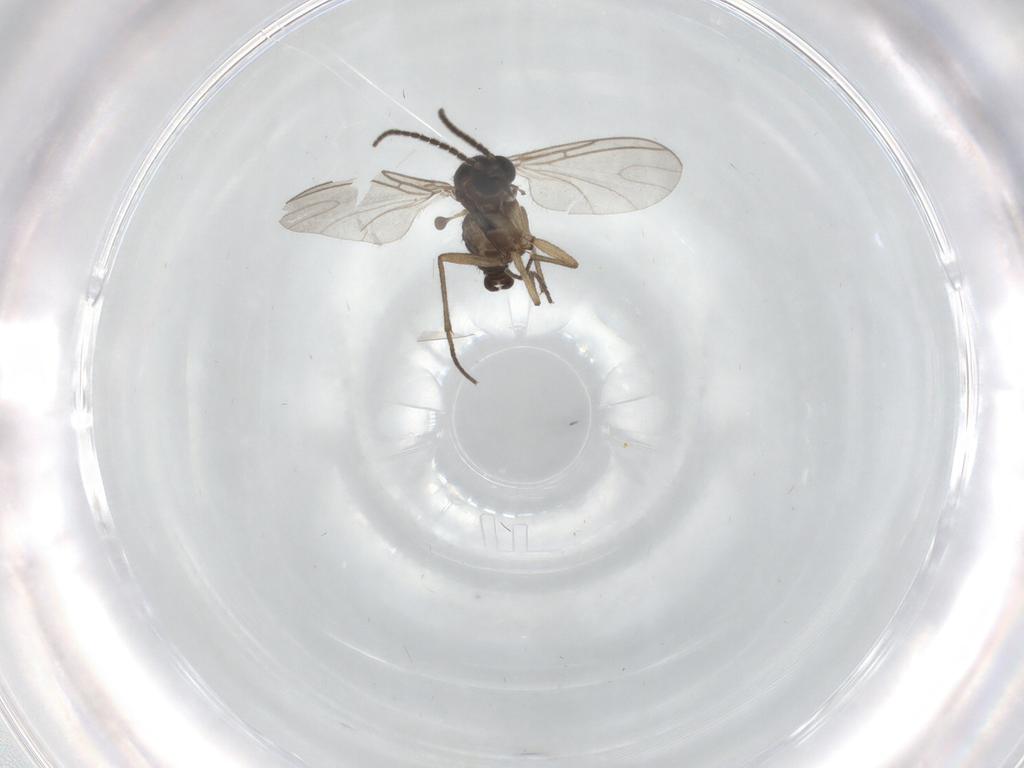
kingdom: Animalia
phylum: Arthropoda
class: Insecta
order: Diptera
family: Sciaridae
